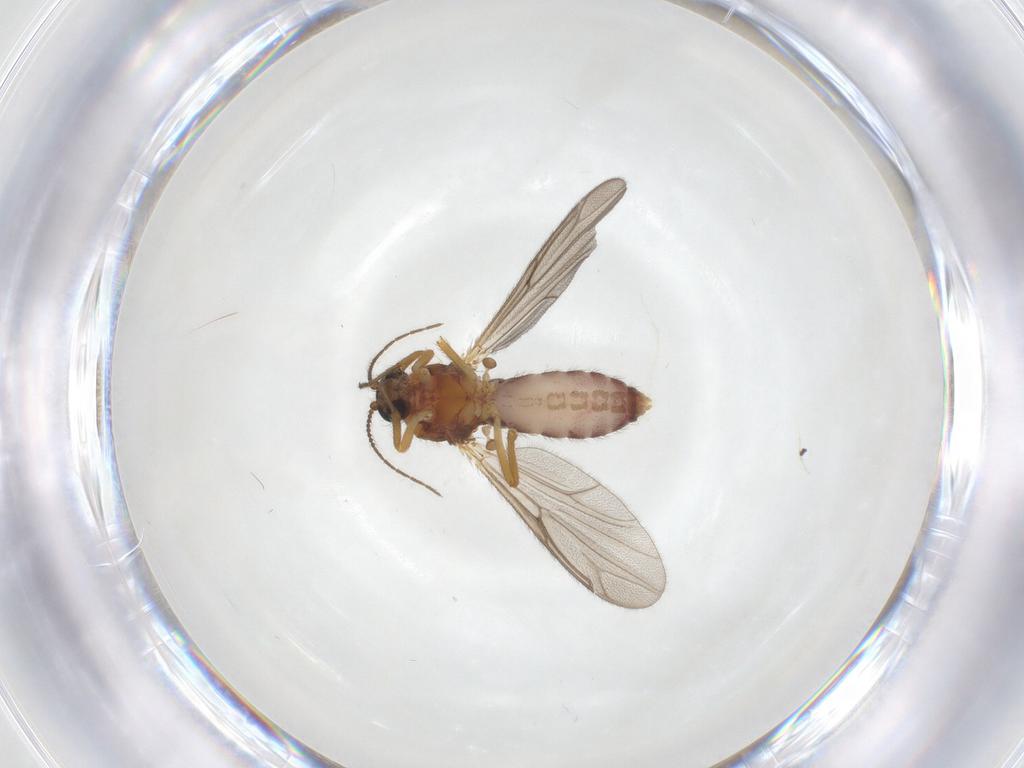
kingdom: Animalia
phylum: Arthropoda
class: Insecta
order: Diptera
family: Ceratopogonidae
